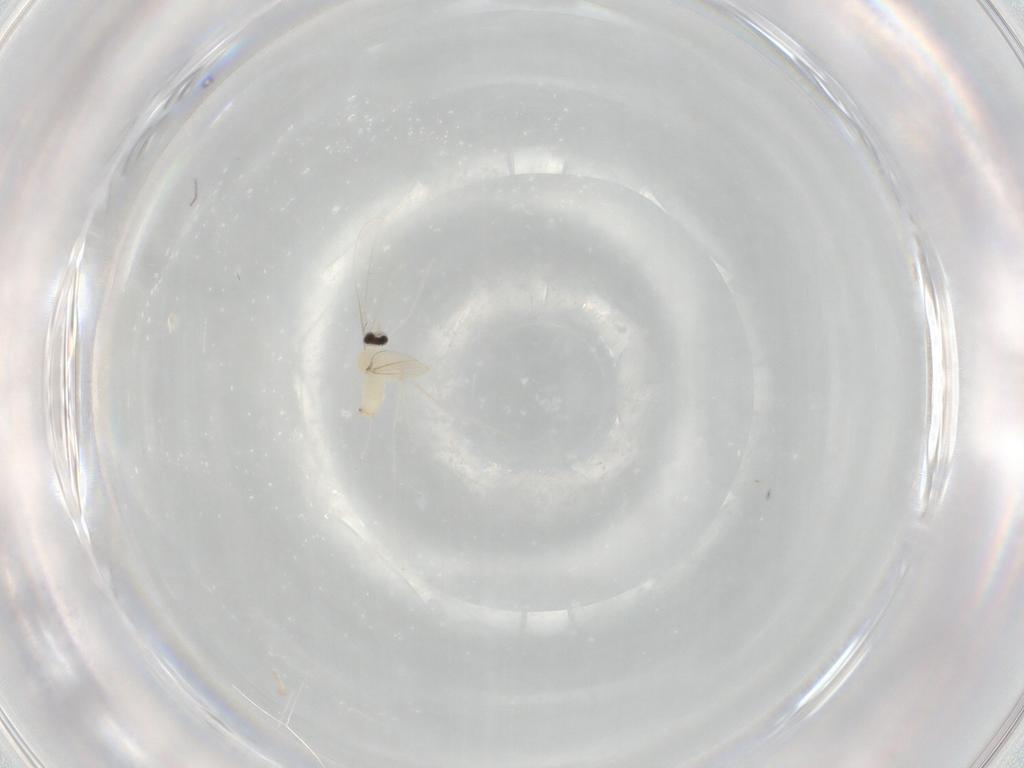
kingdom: Animalia
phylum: Arthropoda
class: Insecta
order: Diptera
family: Cecidomyiidae
